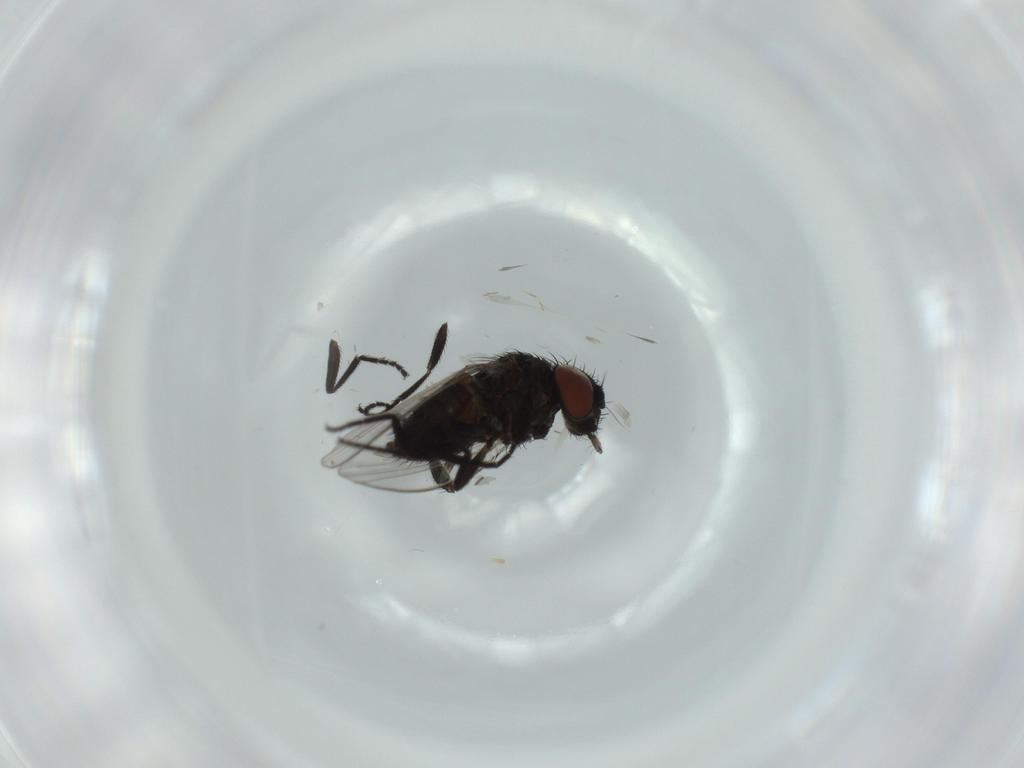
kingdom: Animalia
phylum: Arthropoda
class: Insecta
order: Diptera
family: Milichiidae
